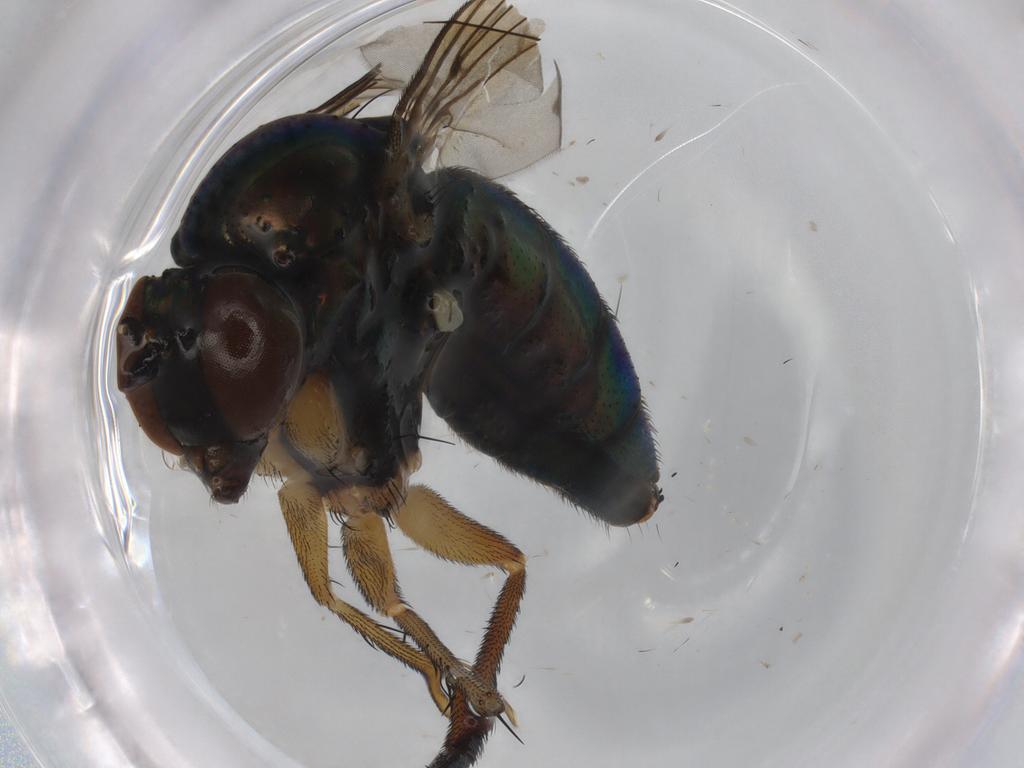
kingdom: Animalia
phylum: Arthropoda
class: Insecta
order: Diptera
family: Dolichopodidae
